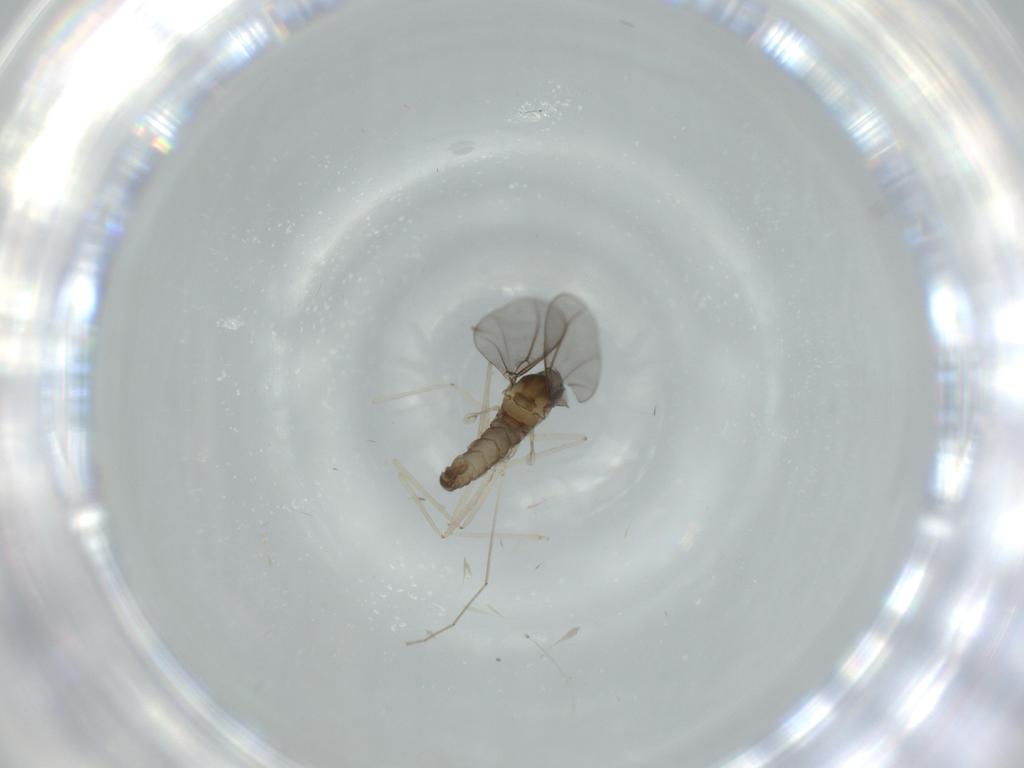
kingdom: Animalia
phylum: Arthropoda
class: Insecta
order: Diptera
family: Cecidomyiidae
